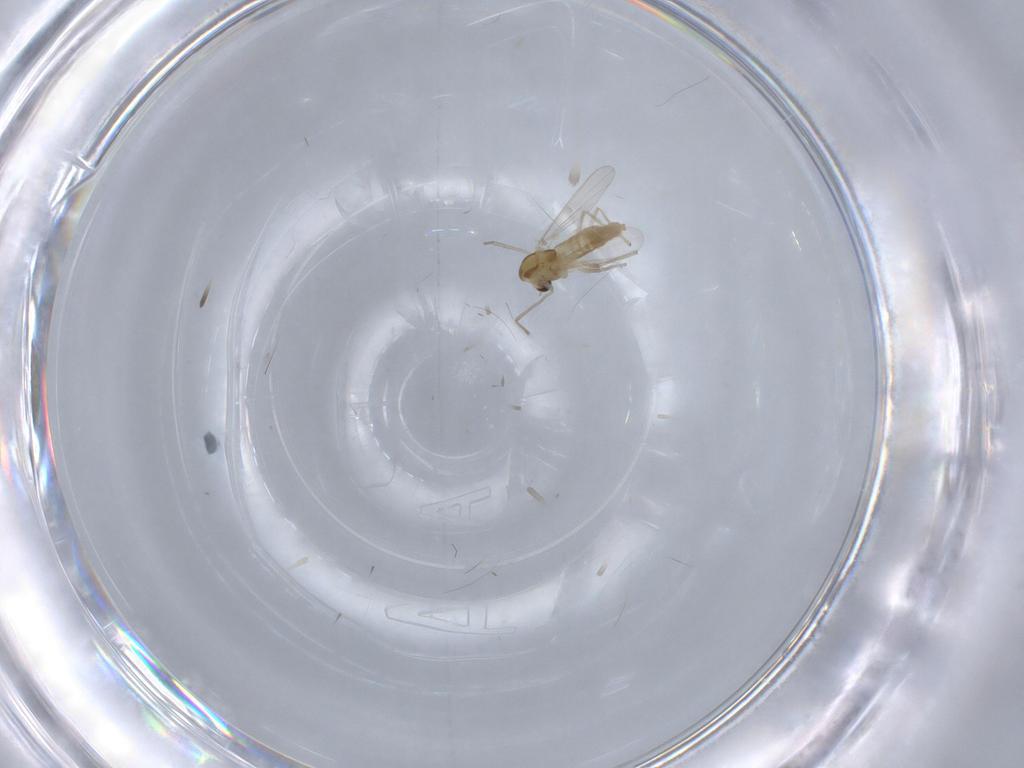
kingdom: Animalia
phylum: Arthropoda
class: Insecta
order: Diptera
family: Chironomidae
